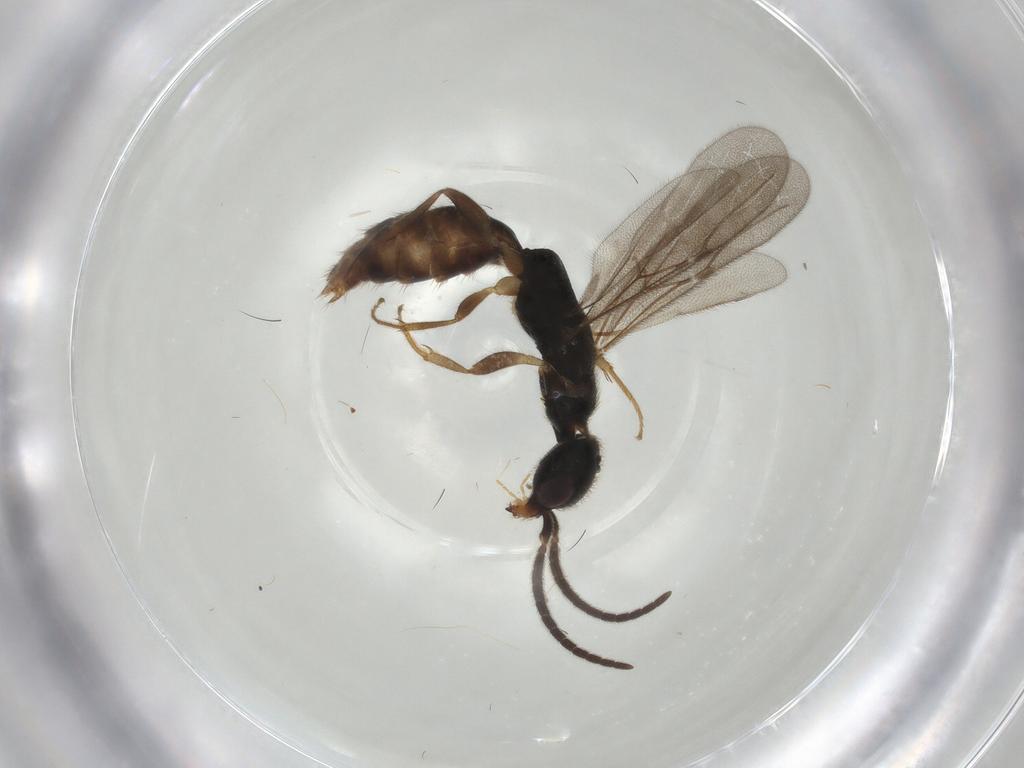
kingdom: Animalia
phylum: Arthropoda
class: Insecta
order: Hymenoptera
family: Bethylidae
